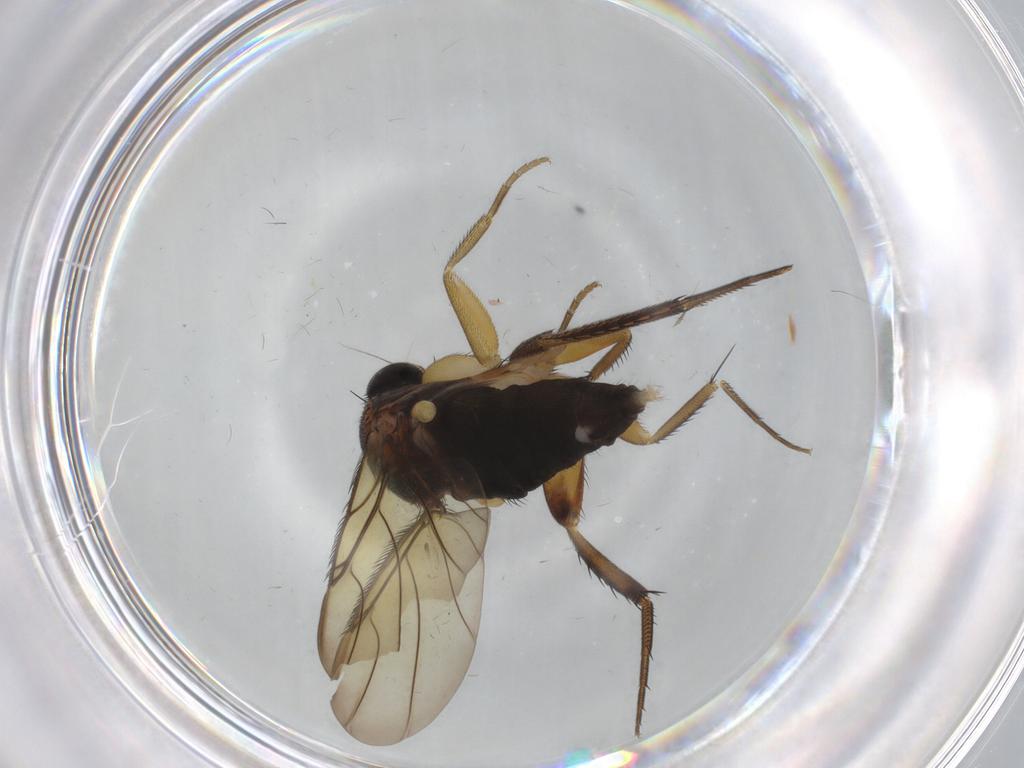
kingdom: Animalia
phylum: Arthropoda
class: Insecta
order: Diptera
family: Phoridae
